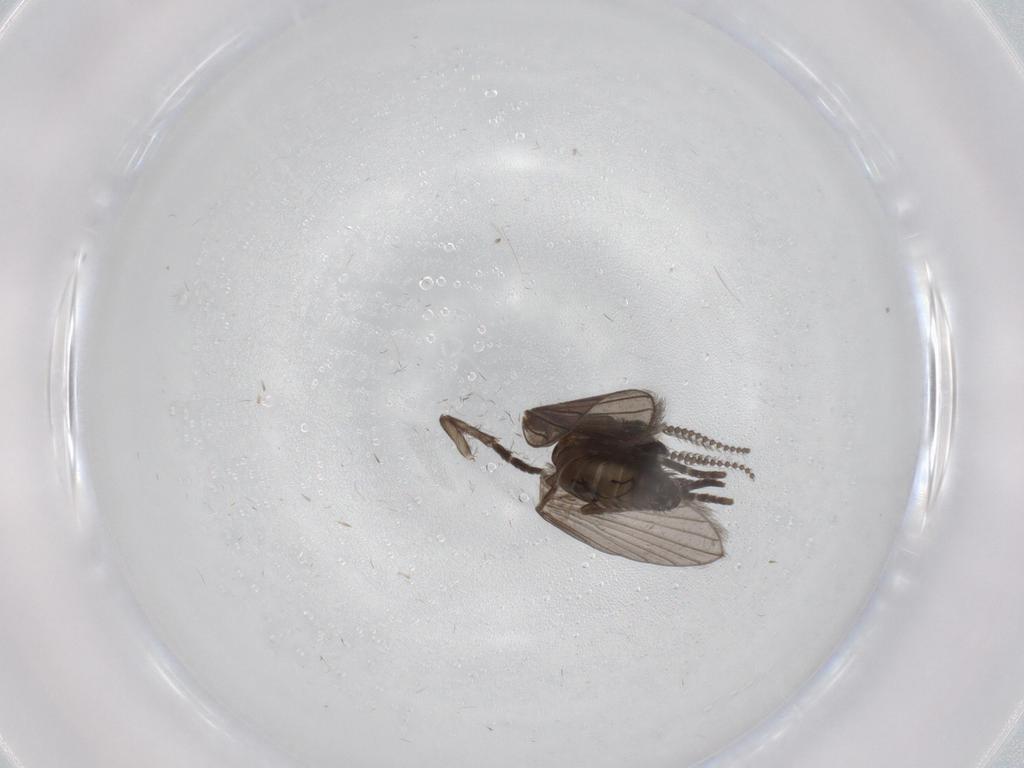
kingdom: Animalia
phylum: Arthropoda
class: Insecta
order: Diptera
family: Psychodidae
